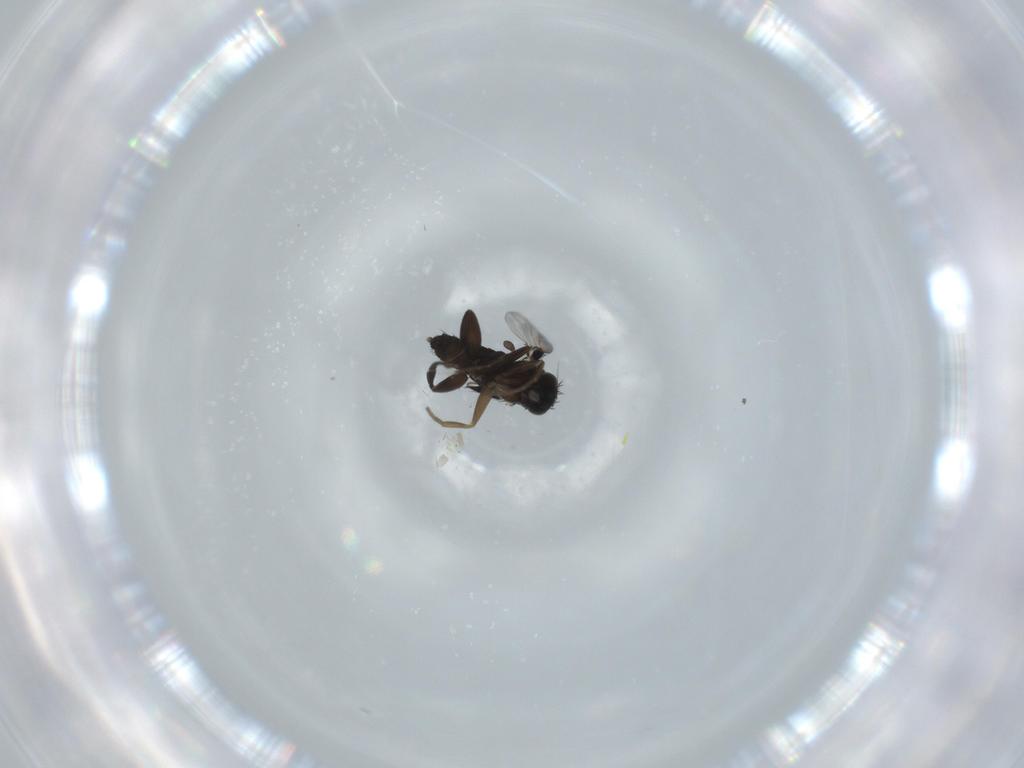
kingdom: Animalia
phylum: Arthropoda
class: Insecta
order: Diptera
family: Phoridae
